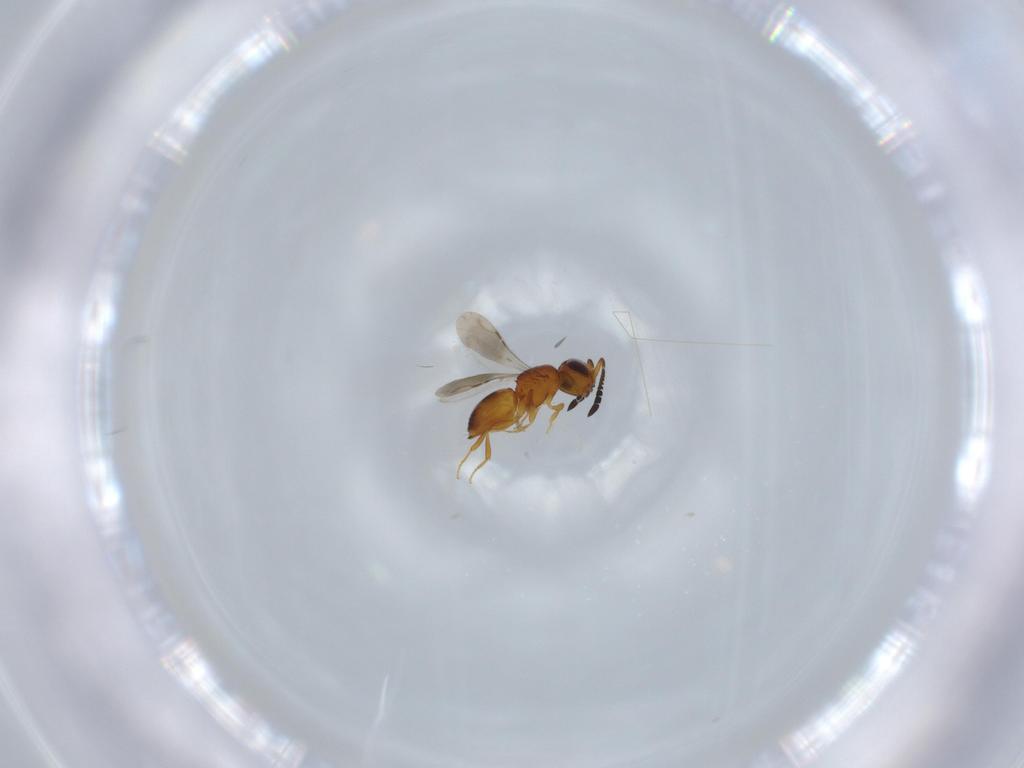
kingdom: Animalia
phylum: Arthropoda
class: Insecta
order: Hymenoptera
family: Ceraphronidae
